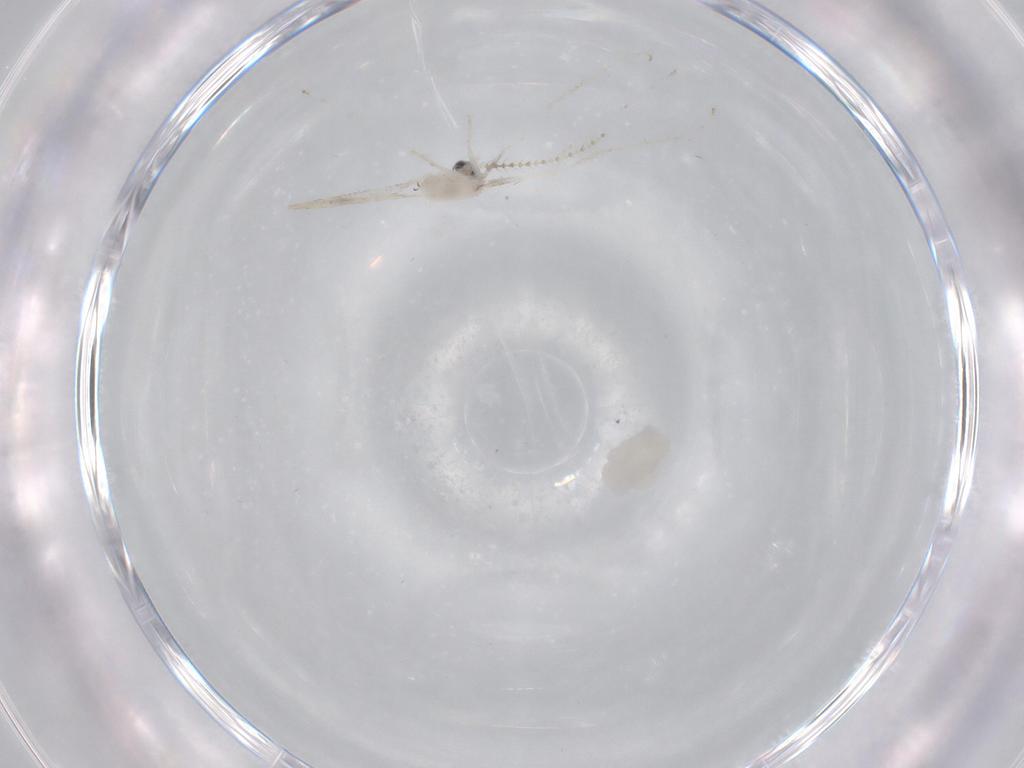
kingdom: Animalia
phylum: Arthropoda
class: Insecta
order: Diptera
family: Cecidomyiidae
